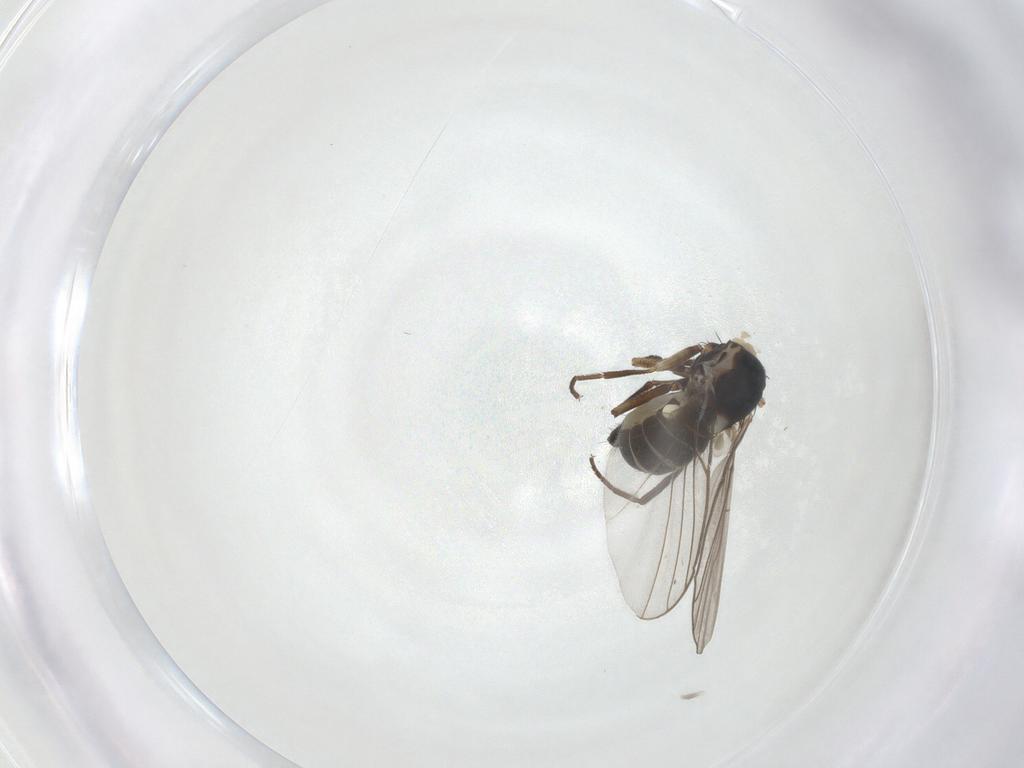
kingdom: Animalia
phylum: Arthropoda
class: Insecta
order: Diptera
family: Agromyzidae
